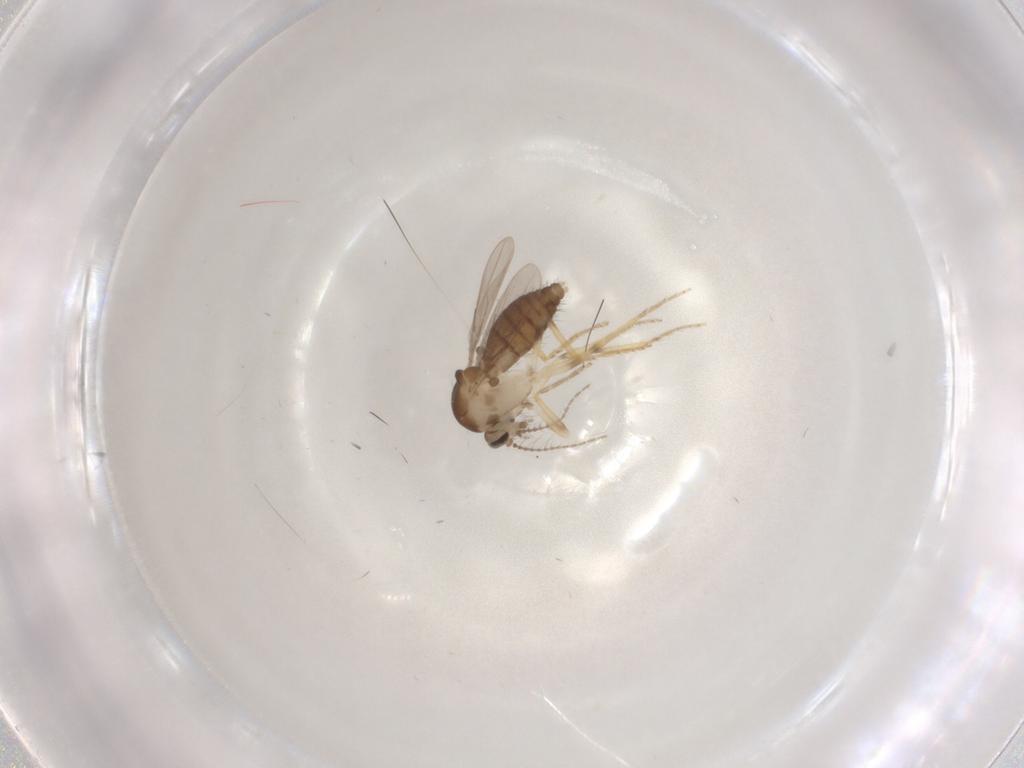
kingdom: Animalia
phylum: Arthropoda
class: Insecta
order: Diptera
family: Ceratopogonidae
